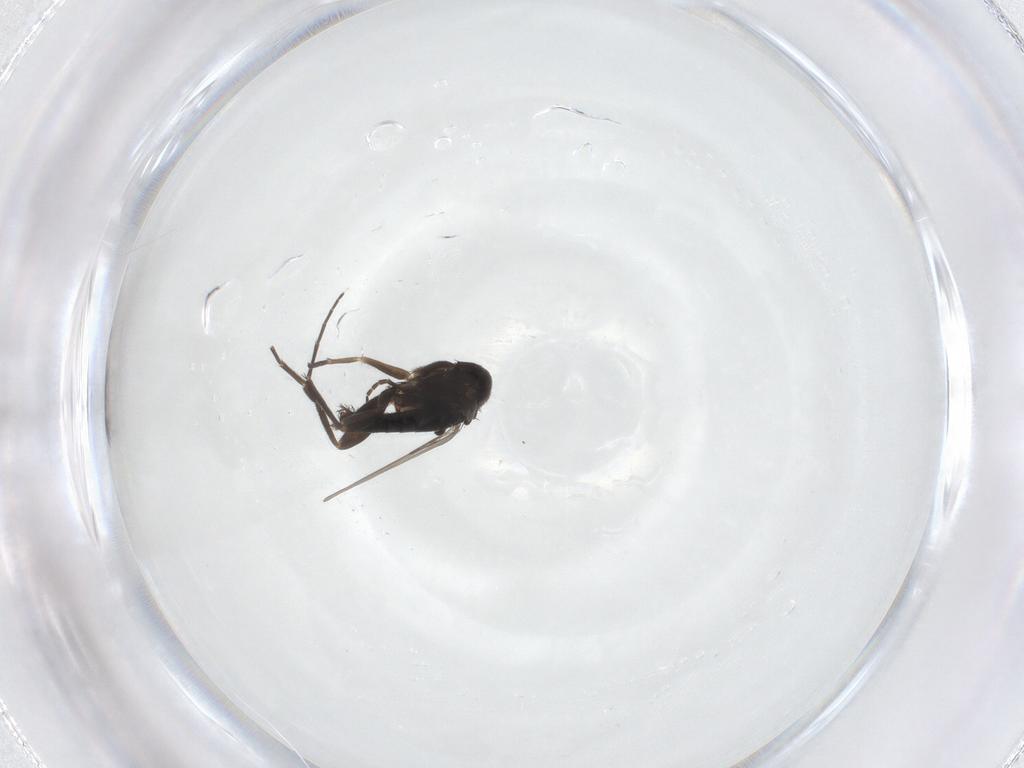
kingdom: Animalia
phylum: Arthropoda
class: Insecta
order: Diptera
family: Phoridae
